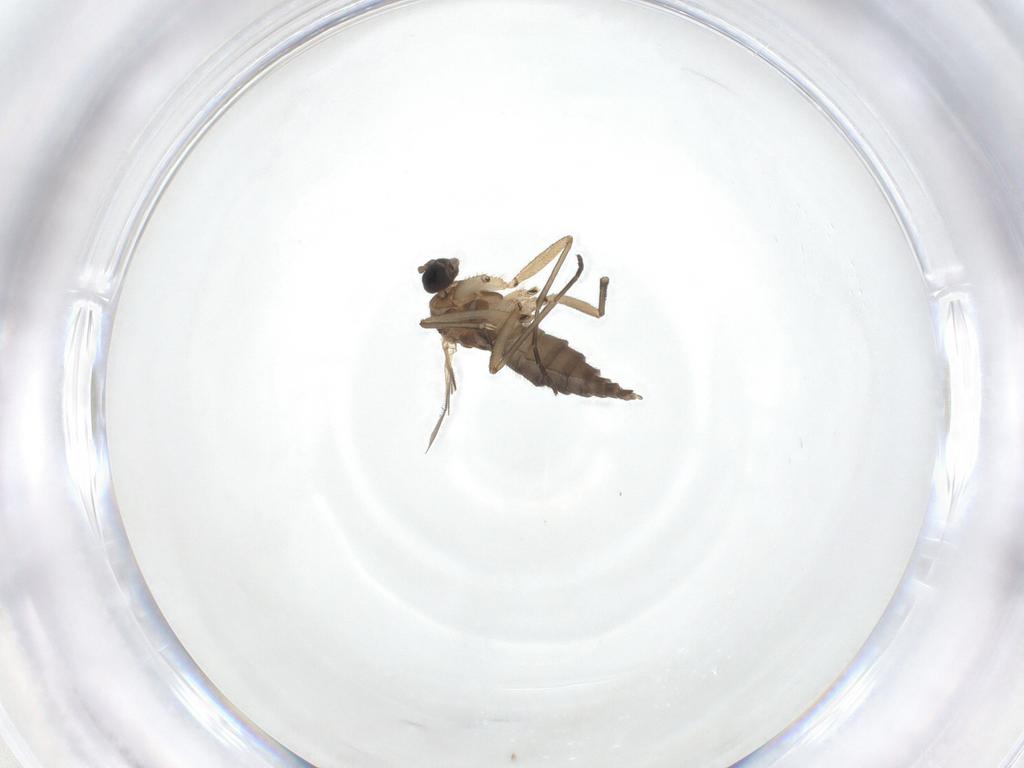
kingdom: Animalia
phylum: Arthropoda
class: Insecta
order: Diptera
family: Sciaridae
